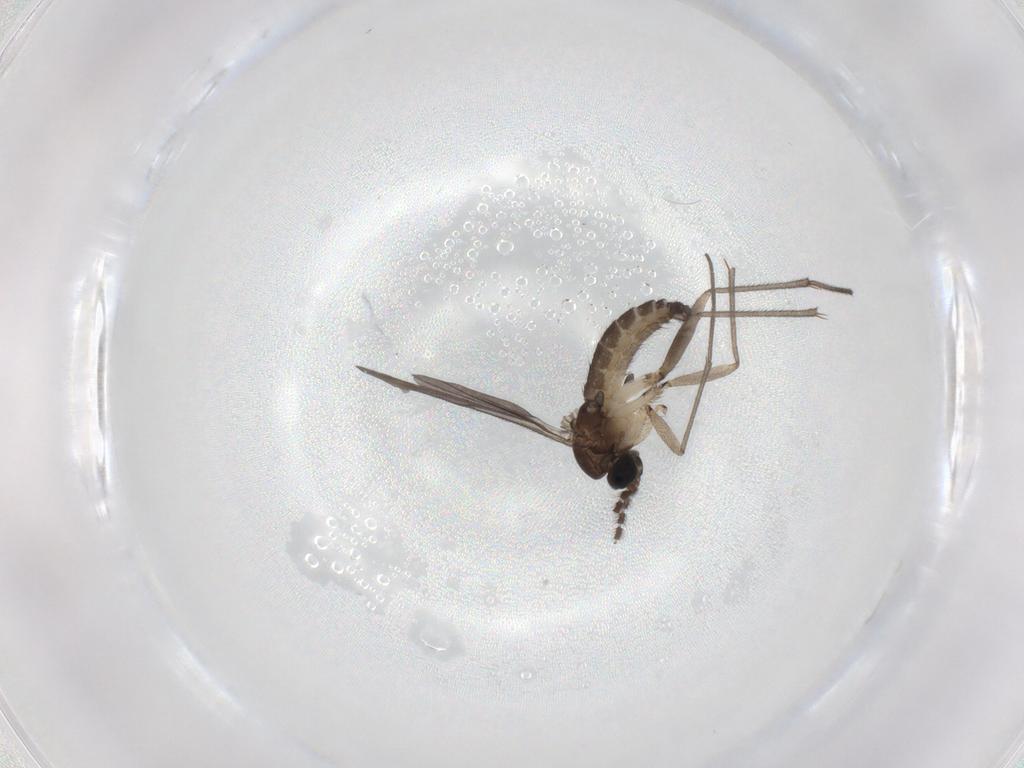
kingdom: Animalia
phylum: Arthropoda
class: Insecta
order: Diptera
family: Sciaridae
